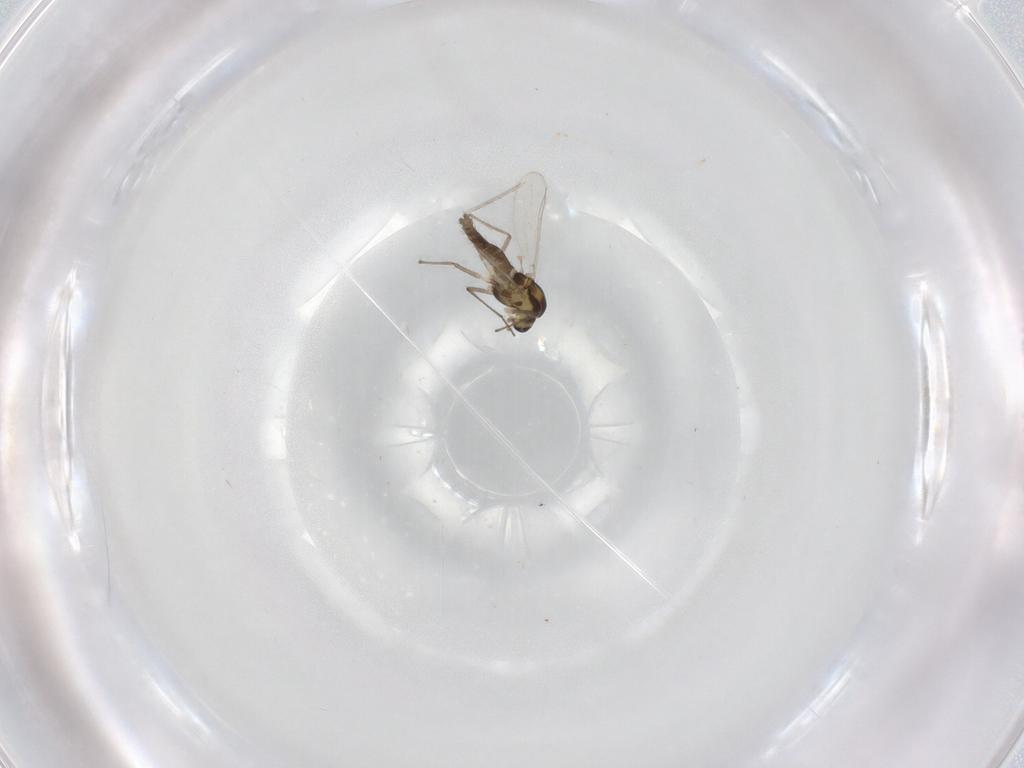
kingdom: Animalia
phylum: Arthropoda
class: Insecta
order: Diptera
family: Cecidomyiidae
